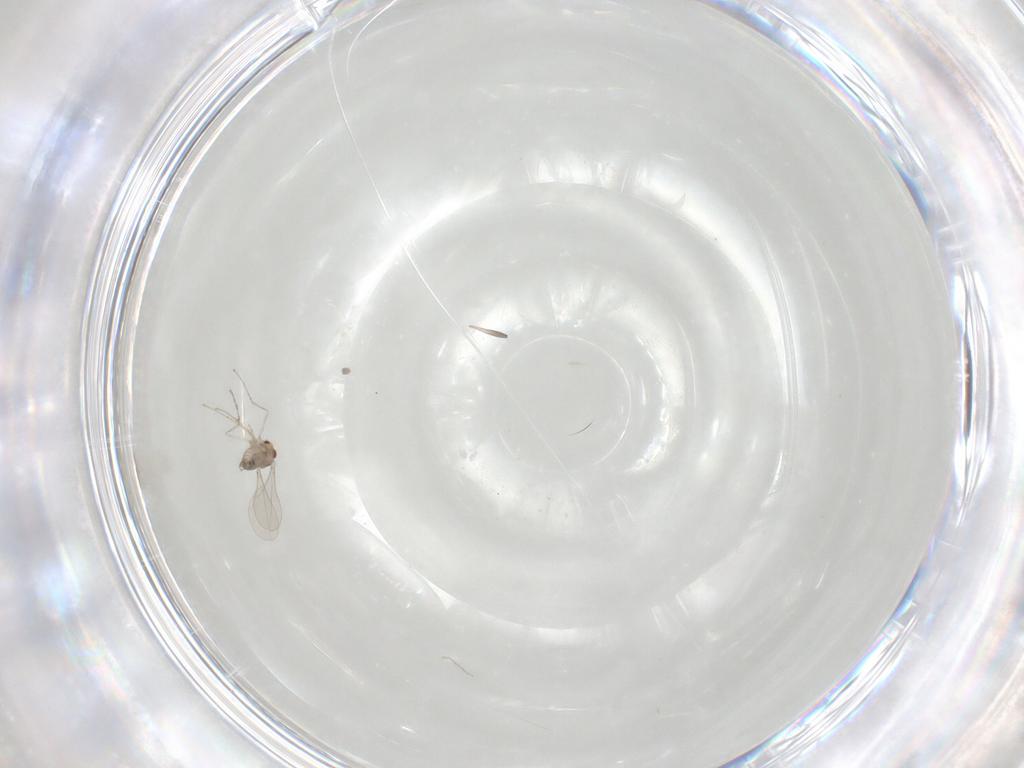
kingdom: Animalia
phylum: Arthropoda
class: Insecta
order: Diptera
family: Cecidomyiidae
